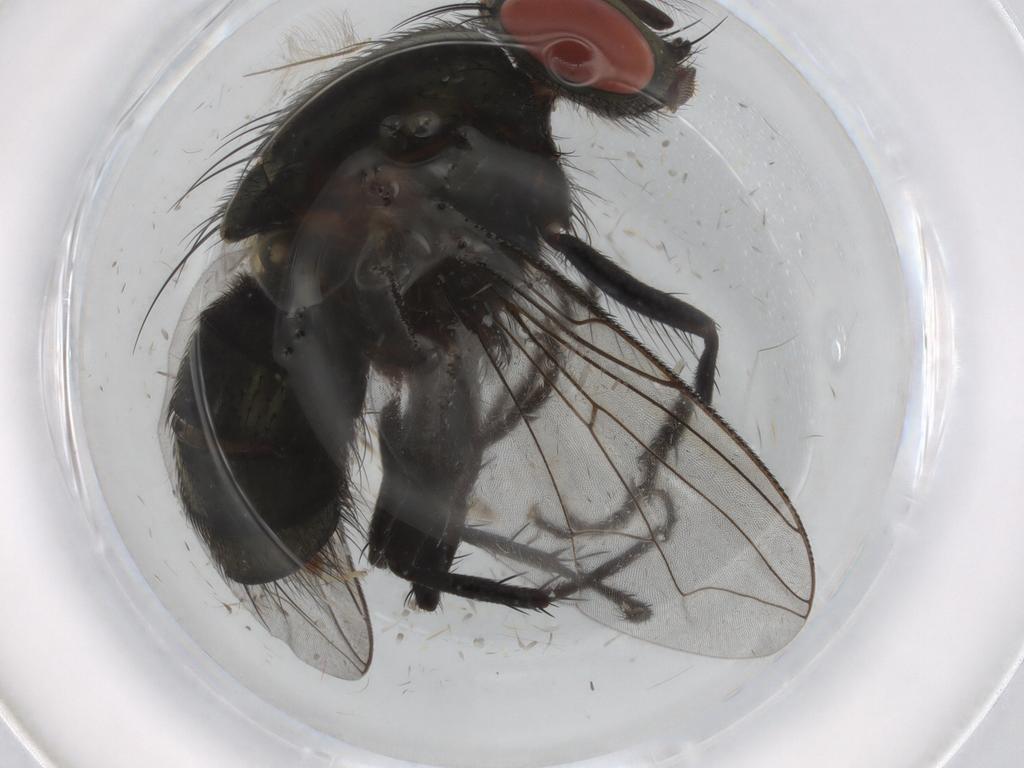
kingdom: Animalia
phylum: Arthropoda
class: Insecta
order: Diptera
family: Sarcophagidae
